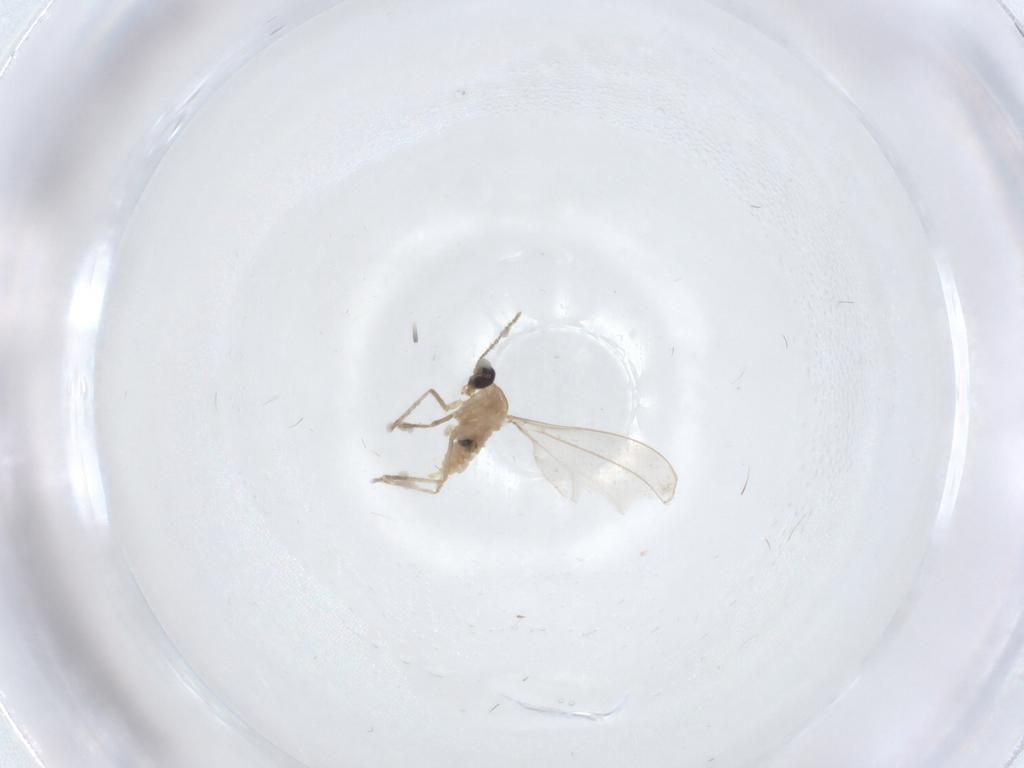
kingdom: Animalia
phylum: Arthropoda
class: Insecta
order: Diptera
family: Cecidomyiidae
